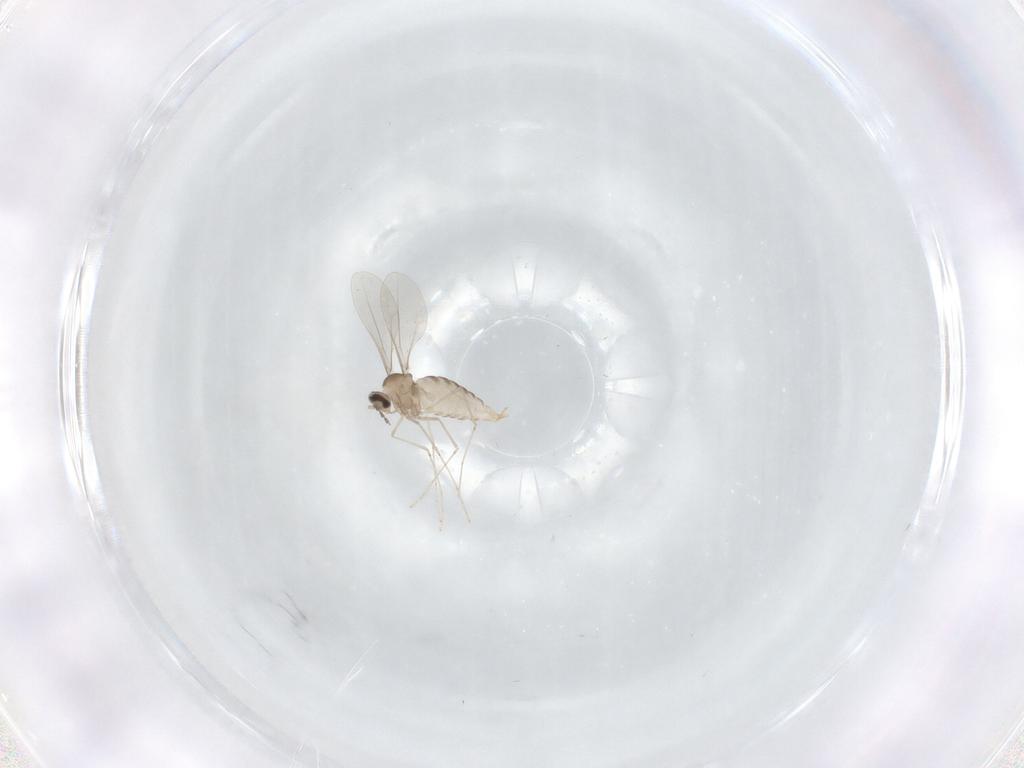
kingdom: Animalia
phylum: Arthropoda
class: Insecta
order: Diptera
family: Cecidomyiidae
